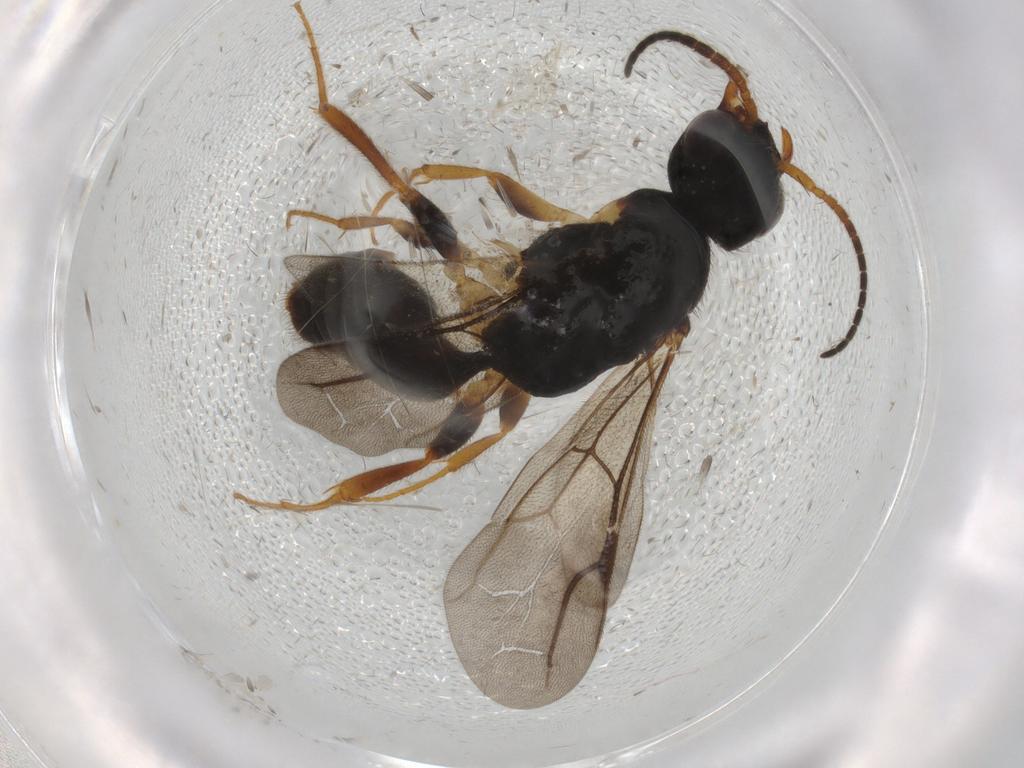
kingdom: Animalia
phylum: Arthropoda
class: Insecta
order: Hymenoptera
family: Bethylidae
